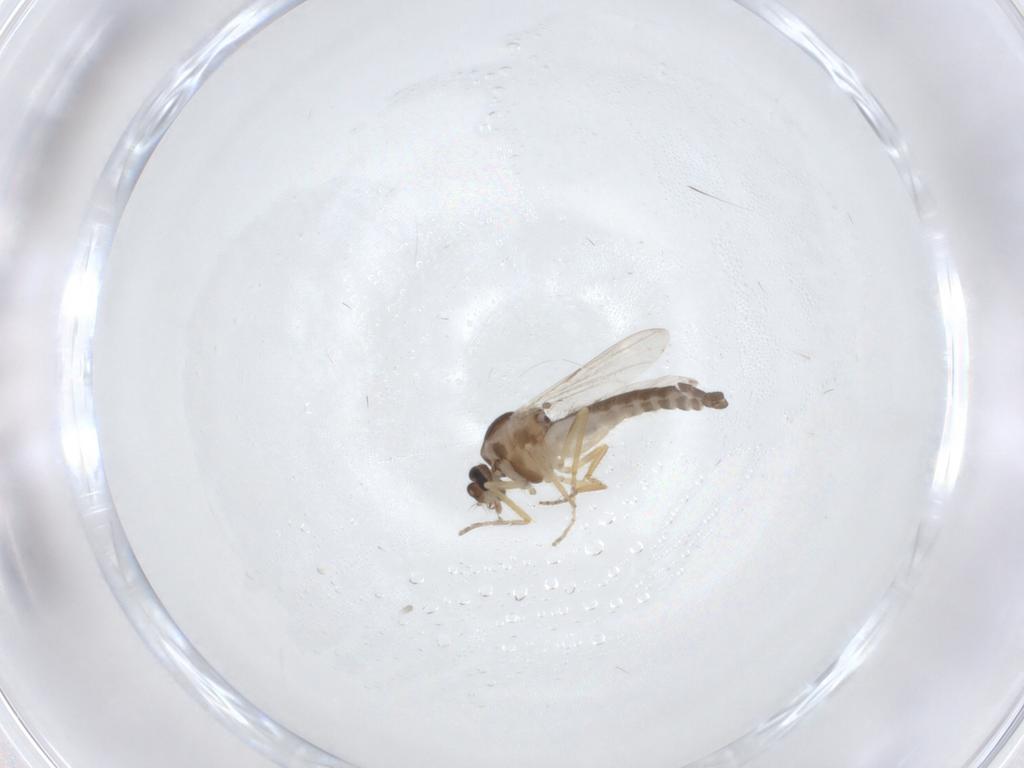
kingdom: Animalia
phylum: Arthropoda
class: Insecta
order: Diptera
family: Ceratopogonidae
